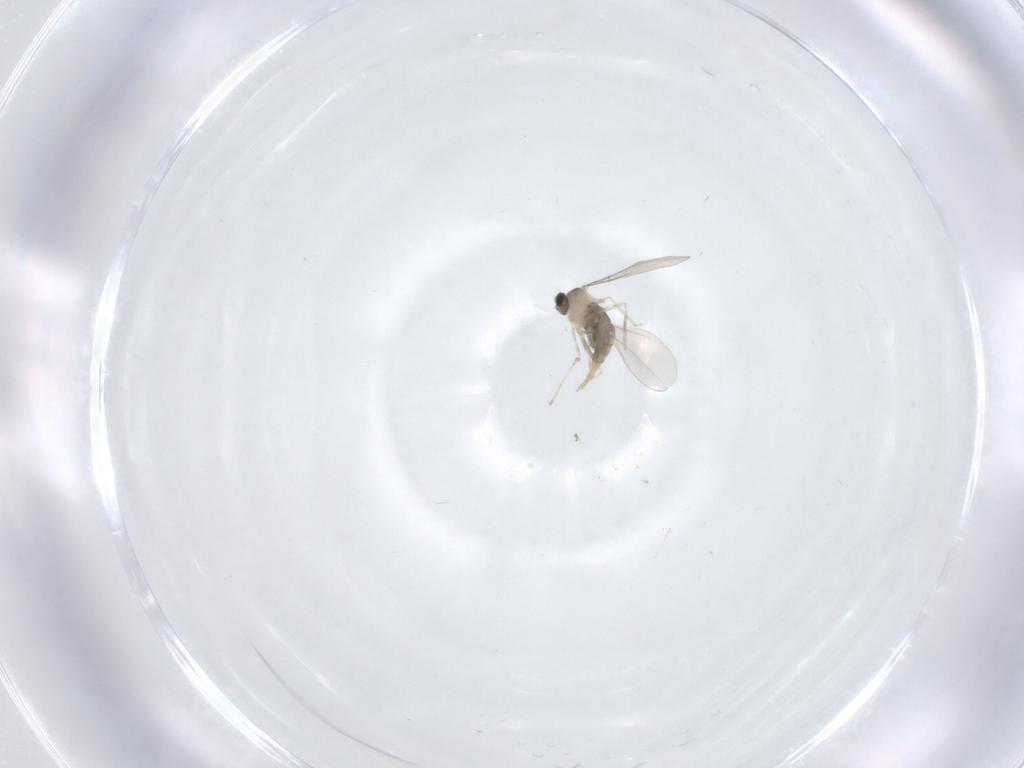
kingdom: Animalia
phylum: Arthropoda
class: Insecta
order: Diptera
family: Cecidomyiidae
